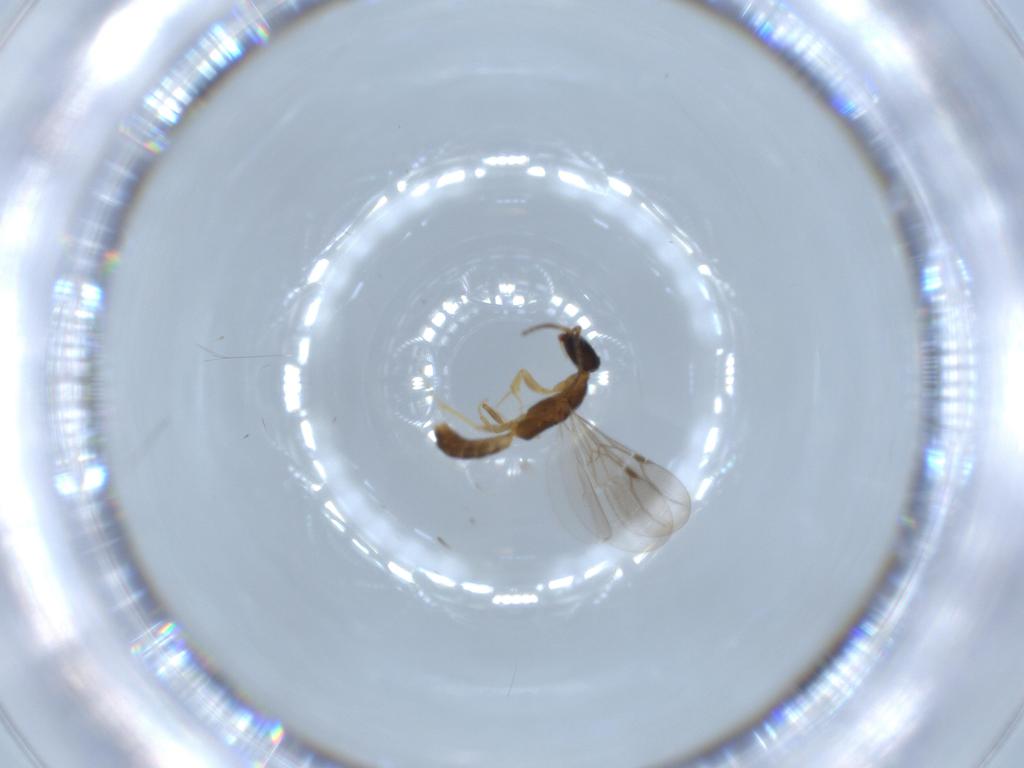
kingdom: Animalia
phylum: Arthropoda
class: Insecta
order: Hymenoptera
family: Bethylidae
